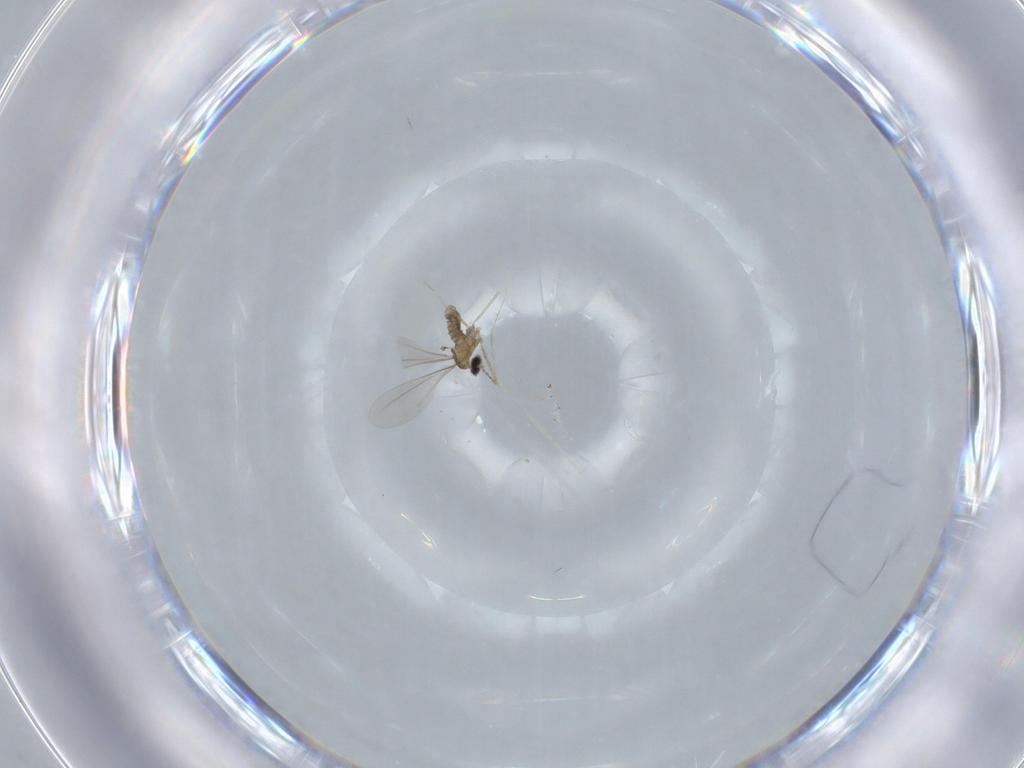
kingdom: Animalia
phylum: Arthropoda
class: Insecta
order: Diptera
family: Cecidomyiidae
